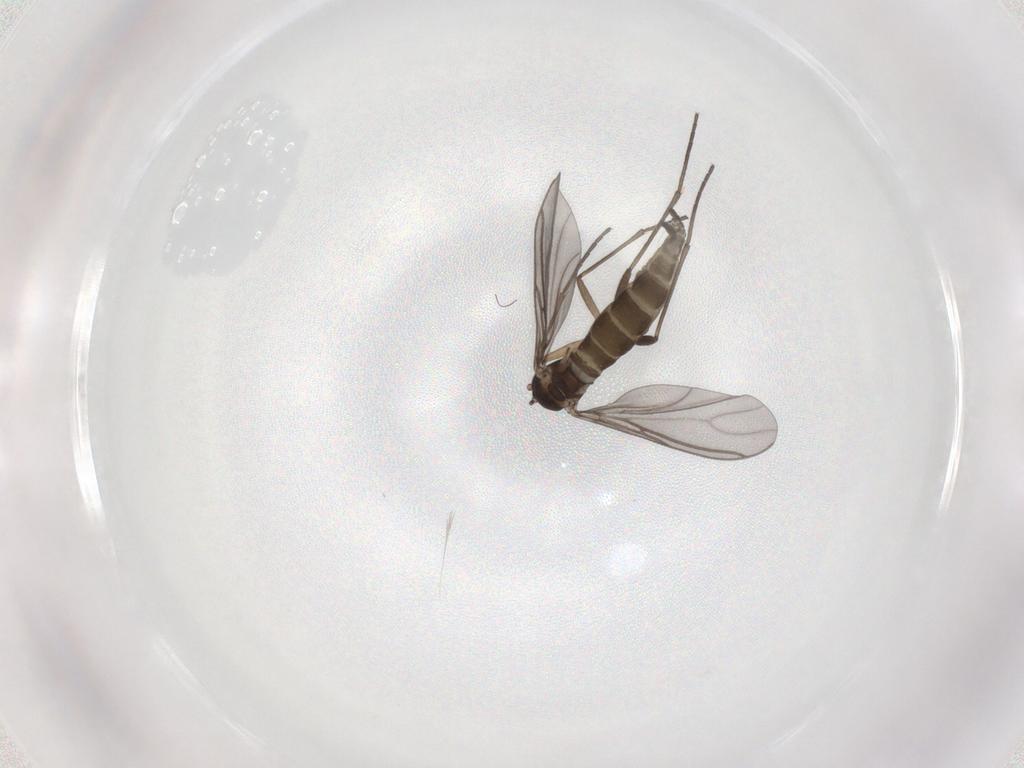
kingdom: Animalia
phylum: Arthropoda
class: Insecta
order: Diptera
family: Sciaridae
